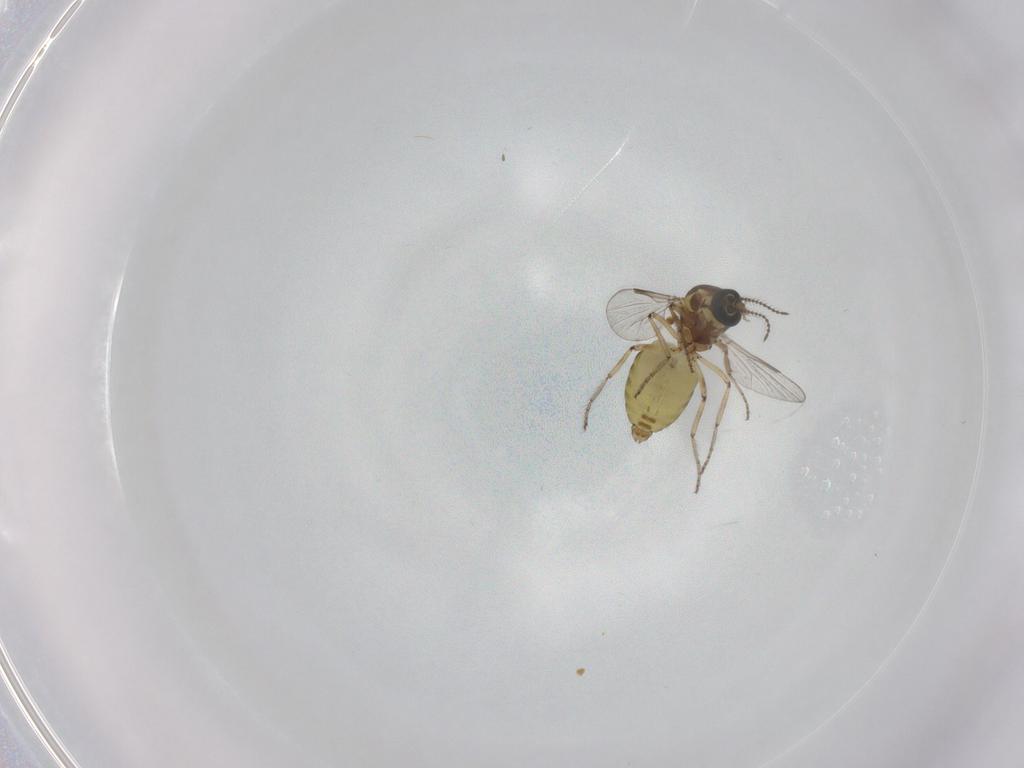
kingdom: Animalia
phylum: Arthropoda
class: Insecta
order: Diptera
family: Ceratopogonidae
